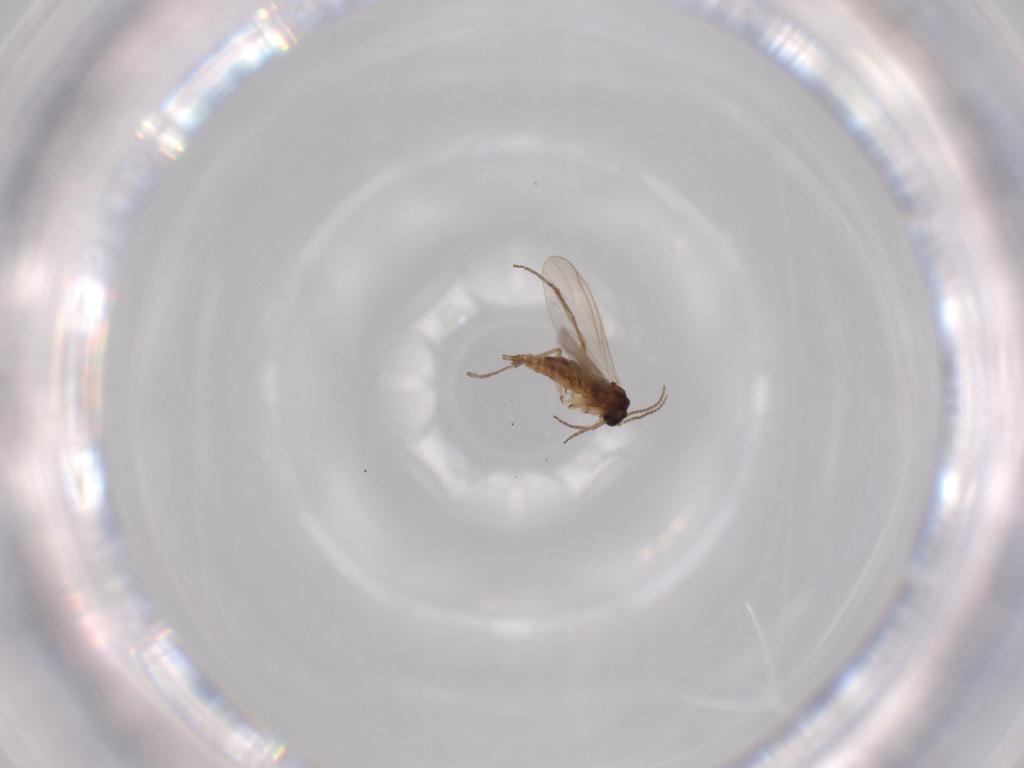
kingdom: Animalia
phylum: Arthropoda
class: Insecta
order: Diptera
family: Sciaridae
